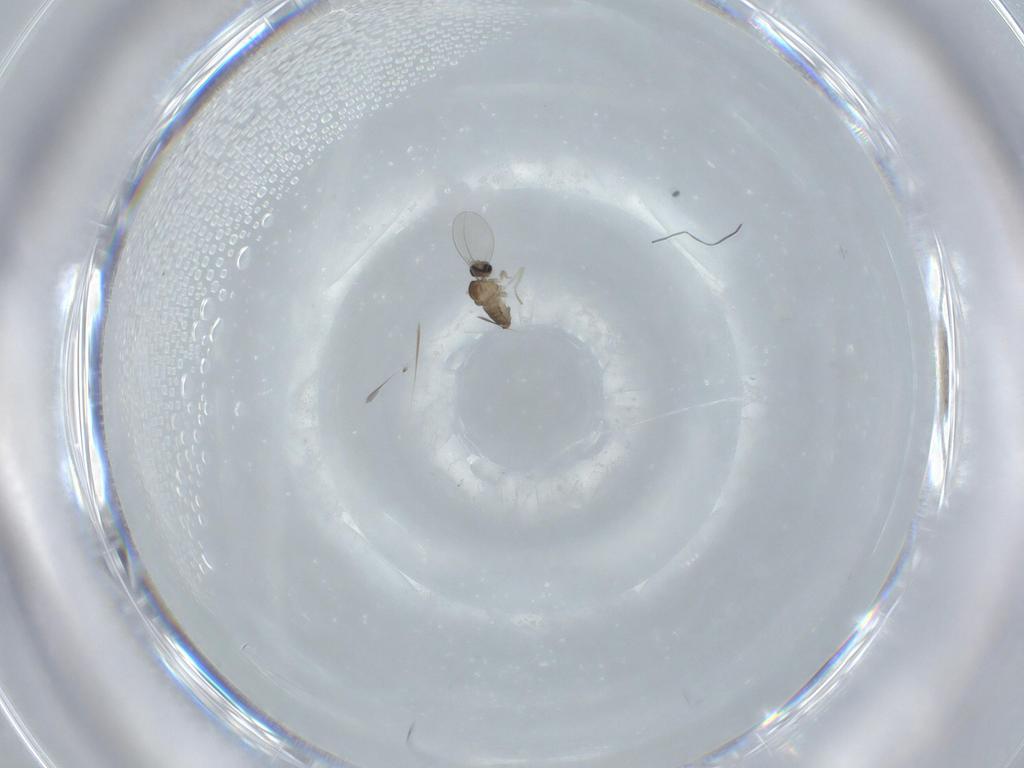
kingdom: Animalia
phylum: Arthropoda
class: Insecta
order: Diptera
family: Cecidomyiidae
